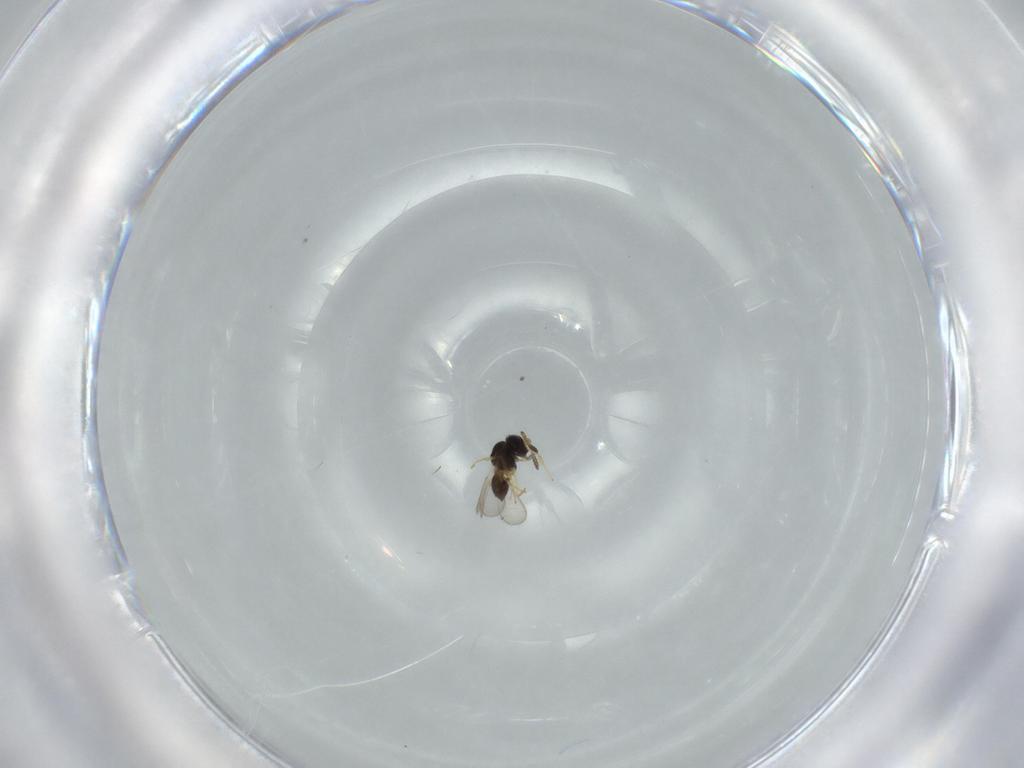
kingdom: Animalia
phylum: Arthropoda
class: Insecta
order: Hymenoptera
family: Scelionidae
